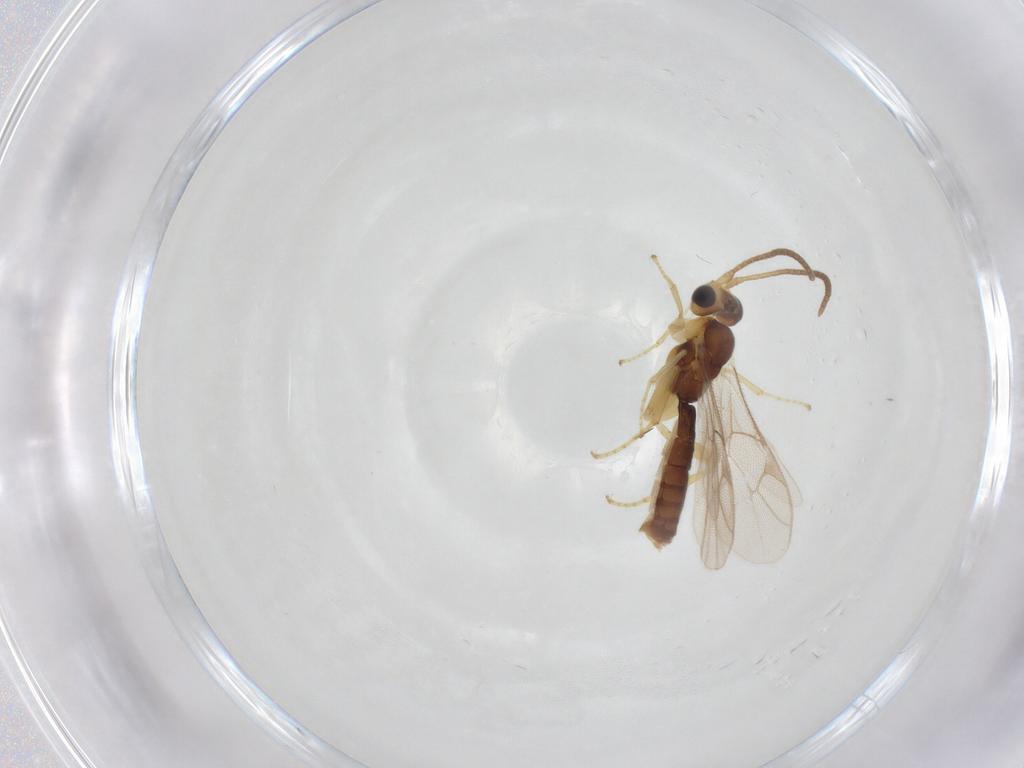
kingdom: Animalia
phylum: Arthropoda
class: Insecta
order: Hymenoptera
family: Ichneumonidae
